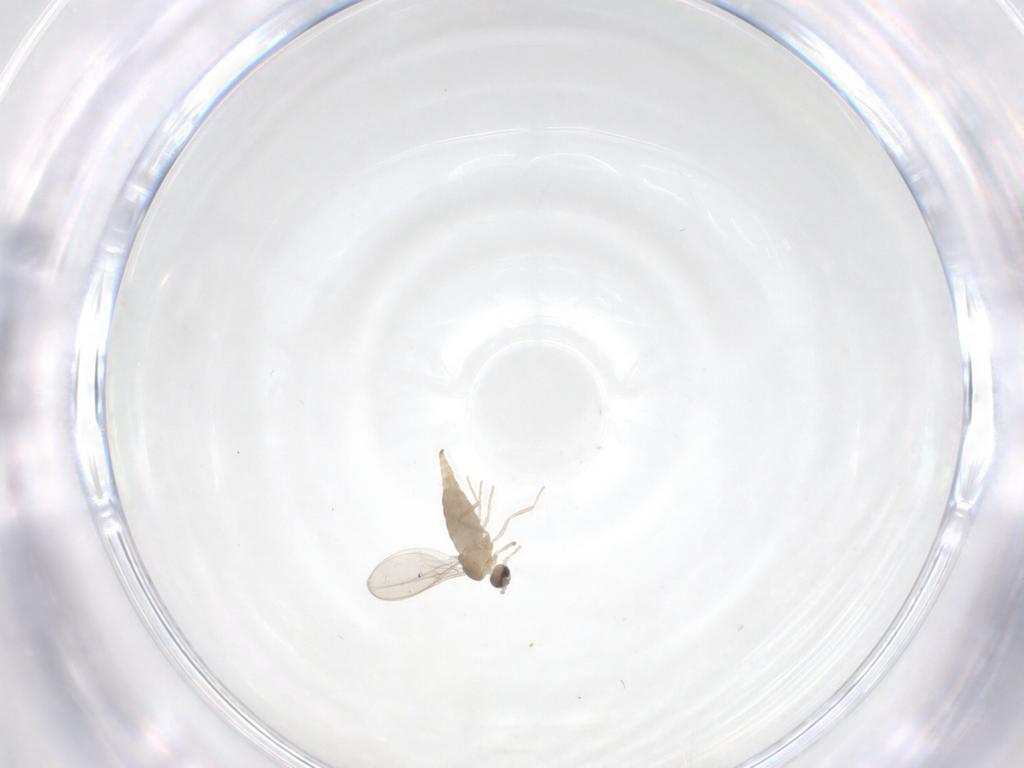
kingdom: Animalia
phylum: Arthropoda
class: Insecta
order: Diptera
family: Cecidomyiidae
